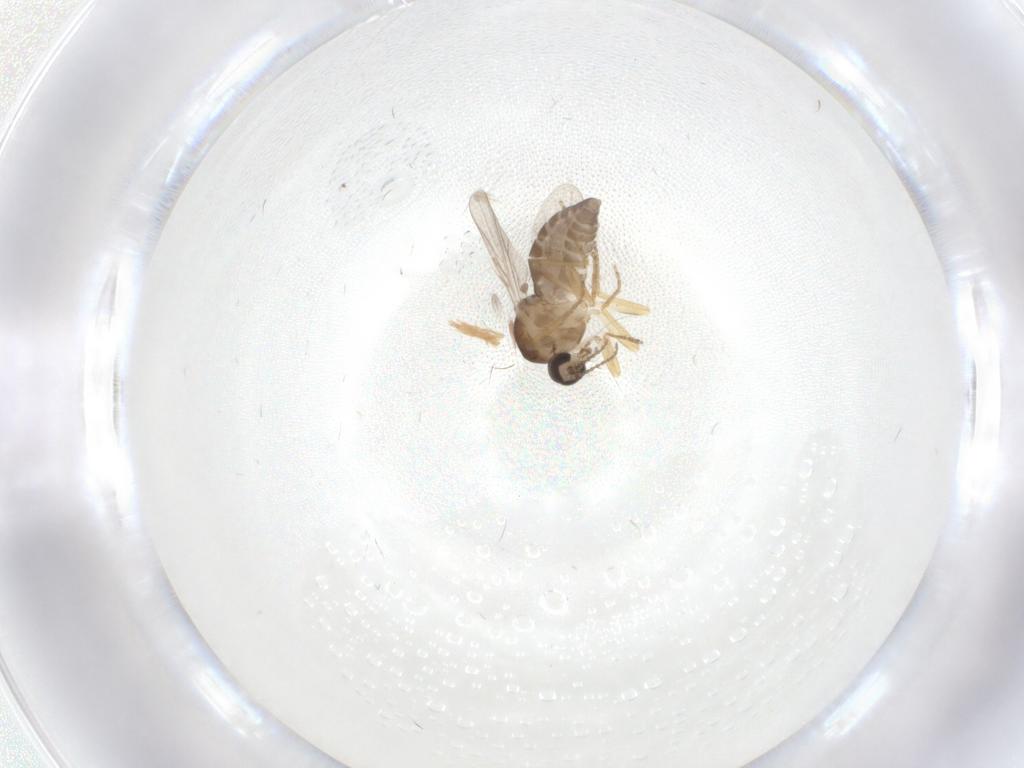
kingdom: Animalia
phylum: Arthropoda
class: Insecta
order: Diptera
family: Ceratopogonidae
